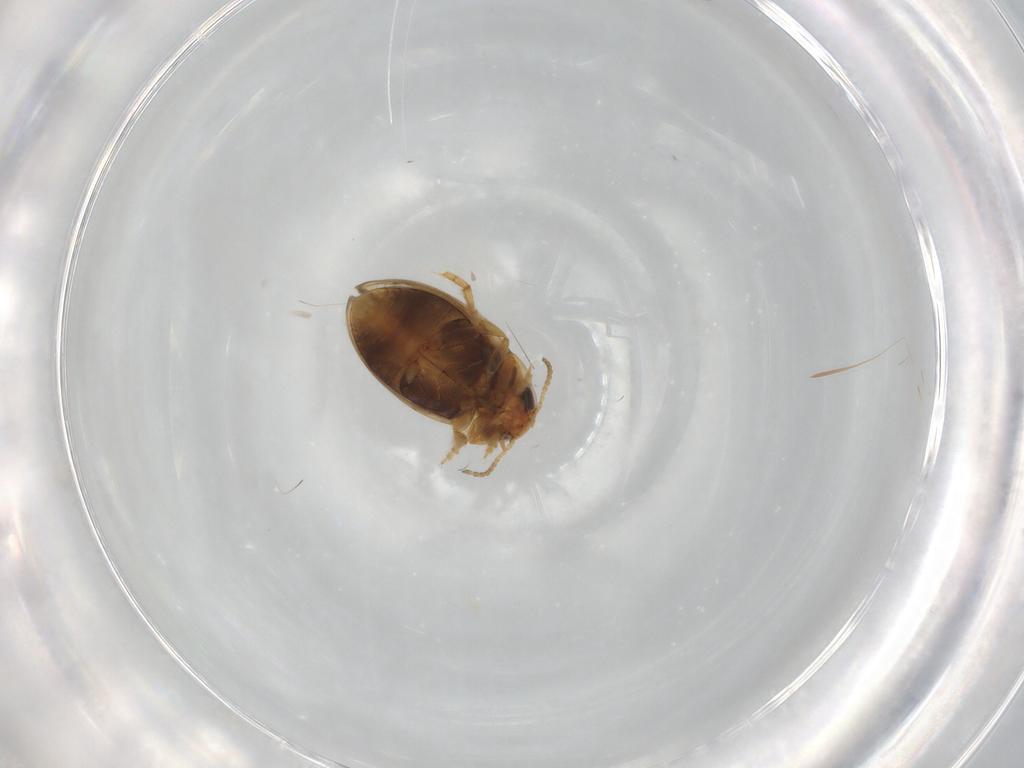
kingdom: Animalia
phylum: Arthropoda
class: Insecta
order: Coleoptera
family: Dytiscidae
